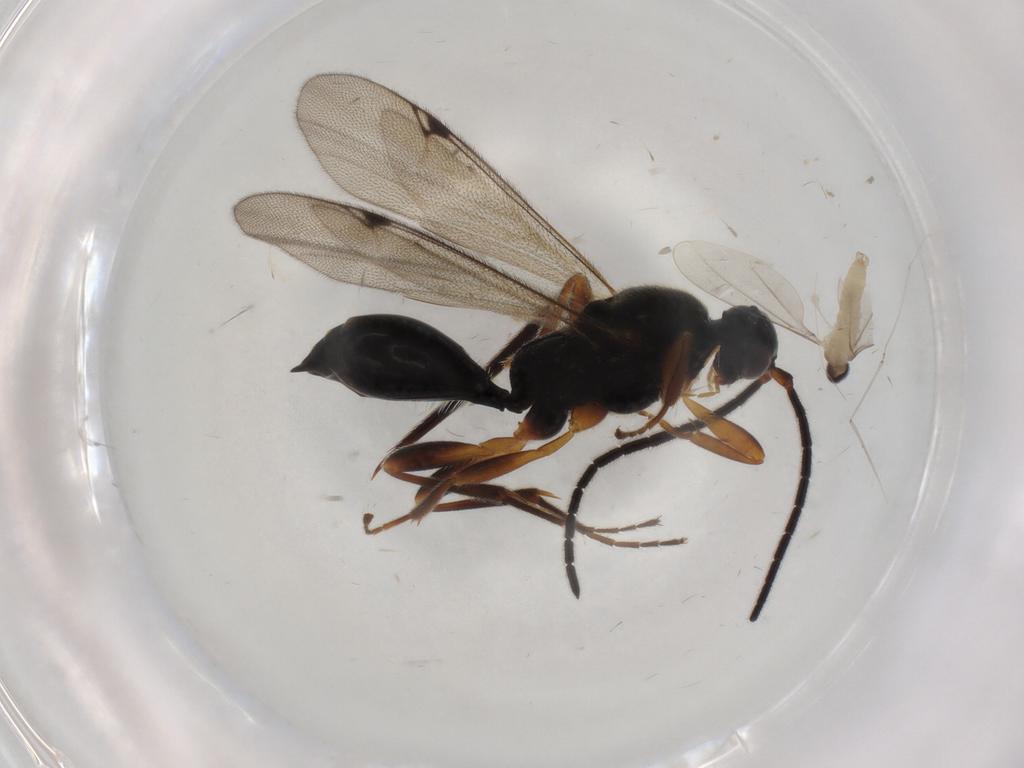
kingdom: Animalia
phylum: Arthropoda
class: Insecta
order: Diptera
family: Cecidomyiidae
